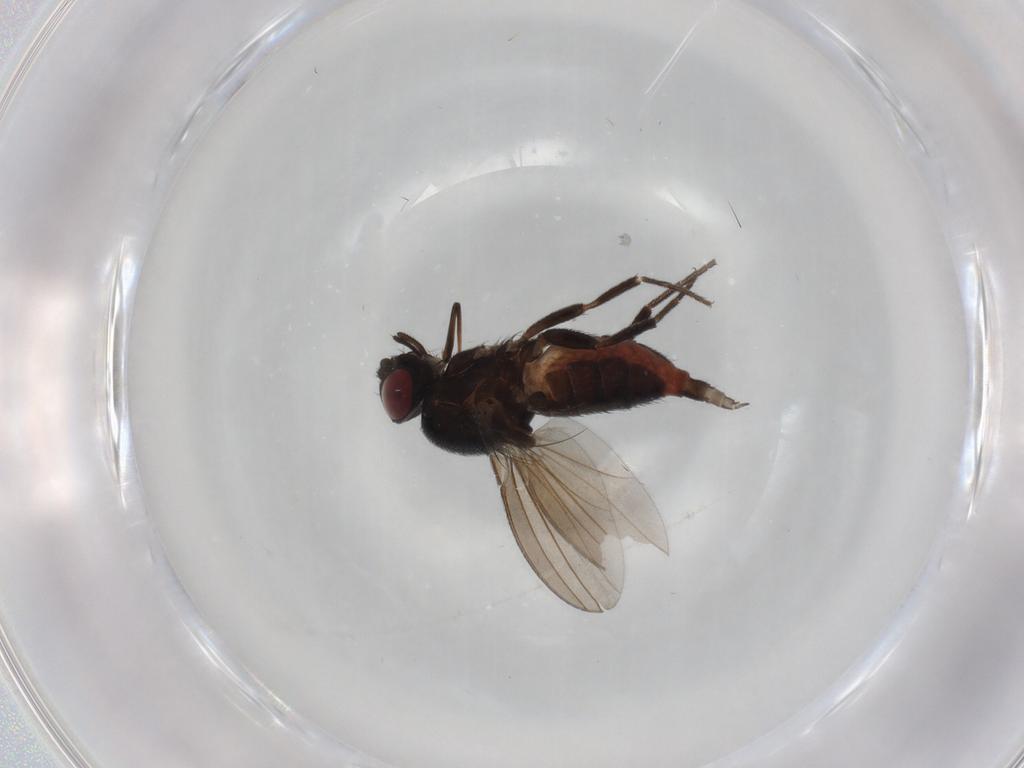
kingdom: Animalia
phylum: Arthropoda
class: Insecta
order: Diptera
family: Milichiidae
